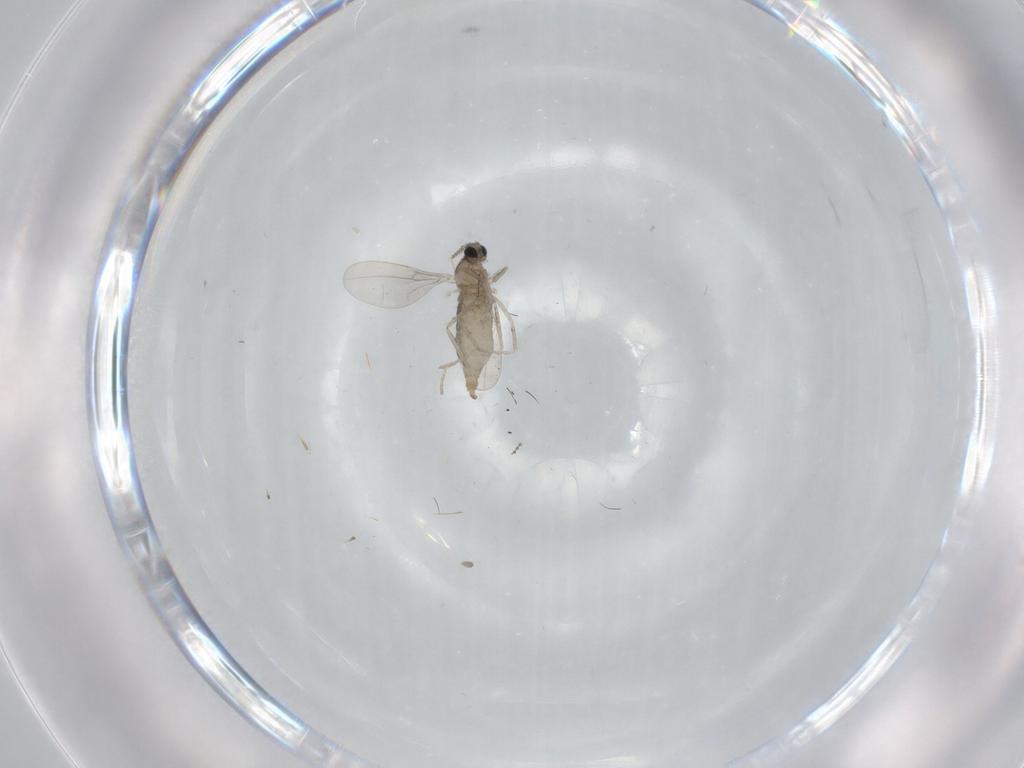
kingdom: Animalia
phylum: Arthropoda
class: Insecta
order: Diptera
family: Cecidomyiidae
